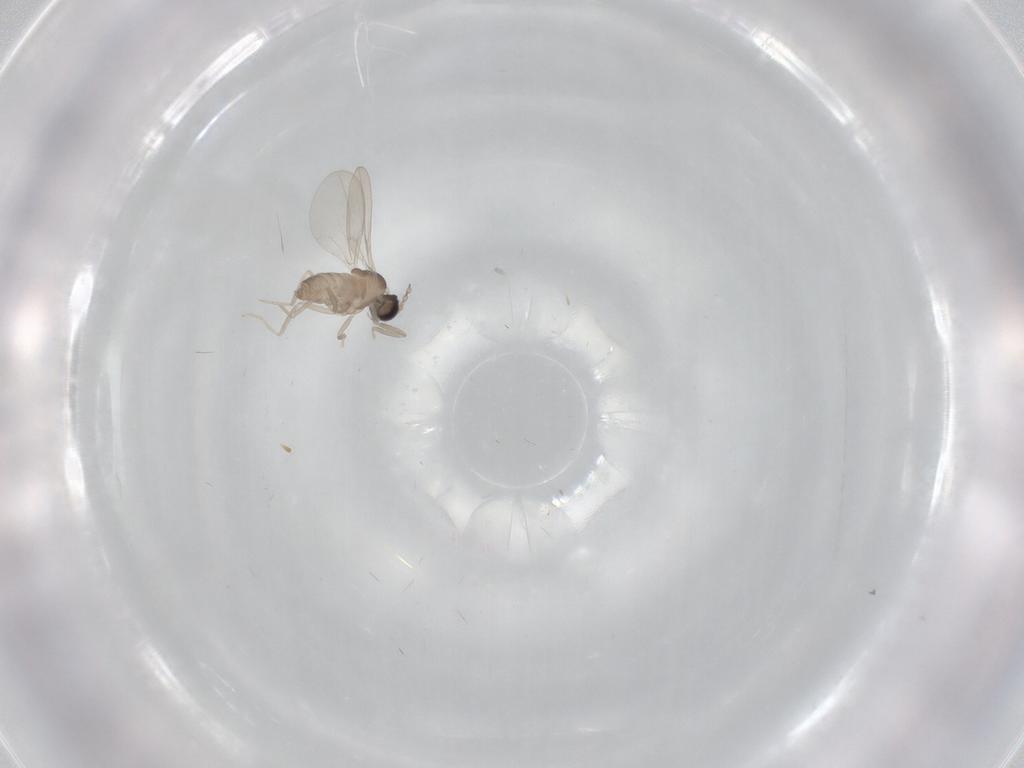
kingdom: Animalia
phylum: Arthropoda
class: Insecta
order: Diptera
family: Cecidomyiidae
